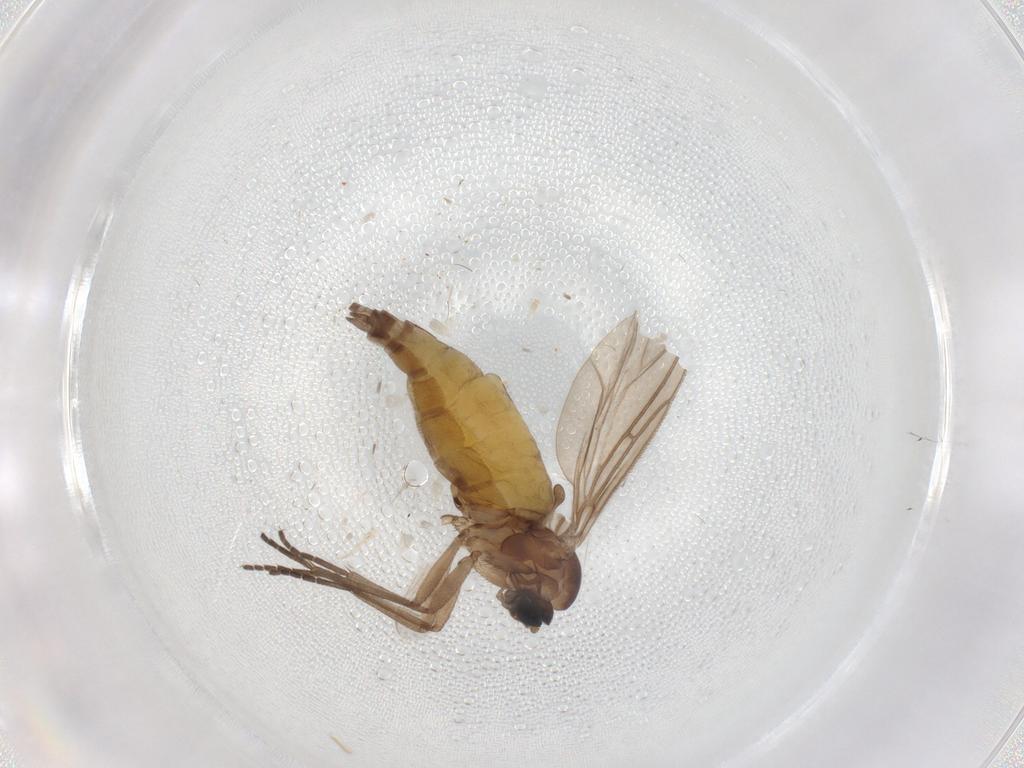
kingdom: Animalia
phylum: Arthropoda
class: Insecta
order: Diptera
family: Sciaridae
